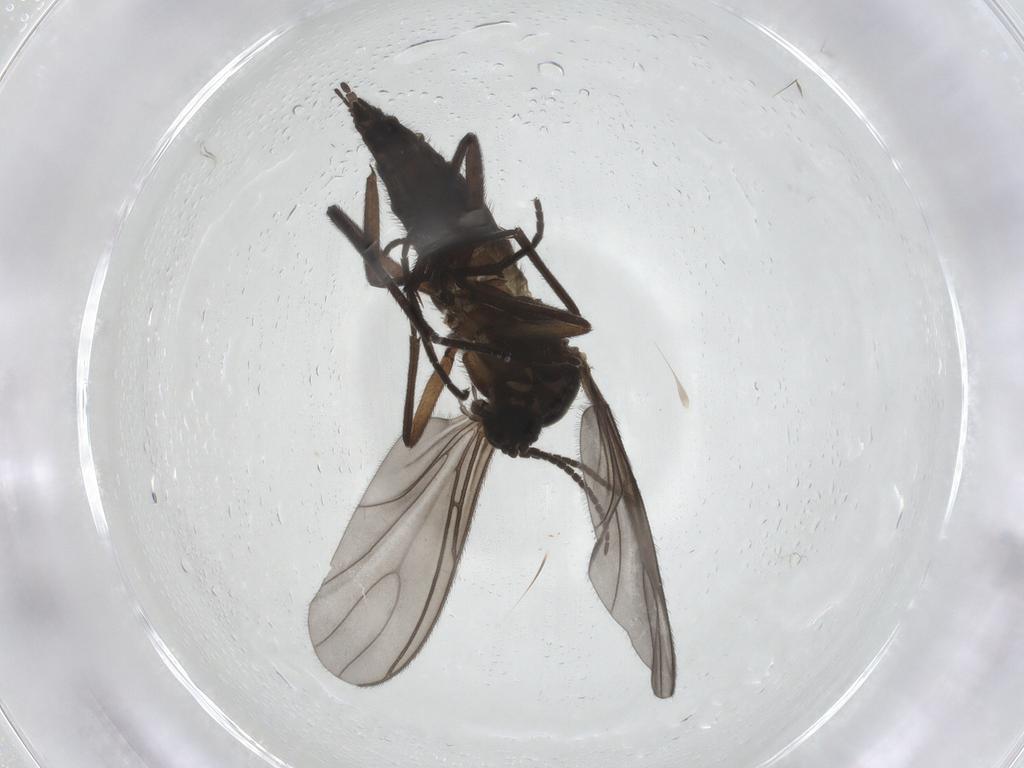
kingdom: Animalia
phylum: Arthropoda
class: Insecta
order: Diptera
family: Sciaridae
